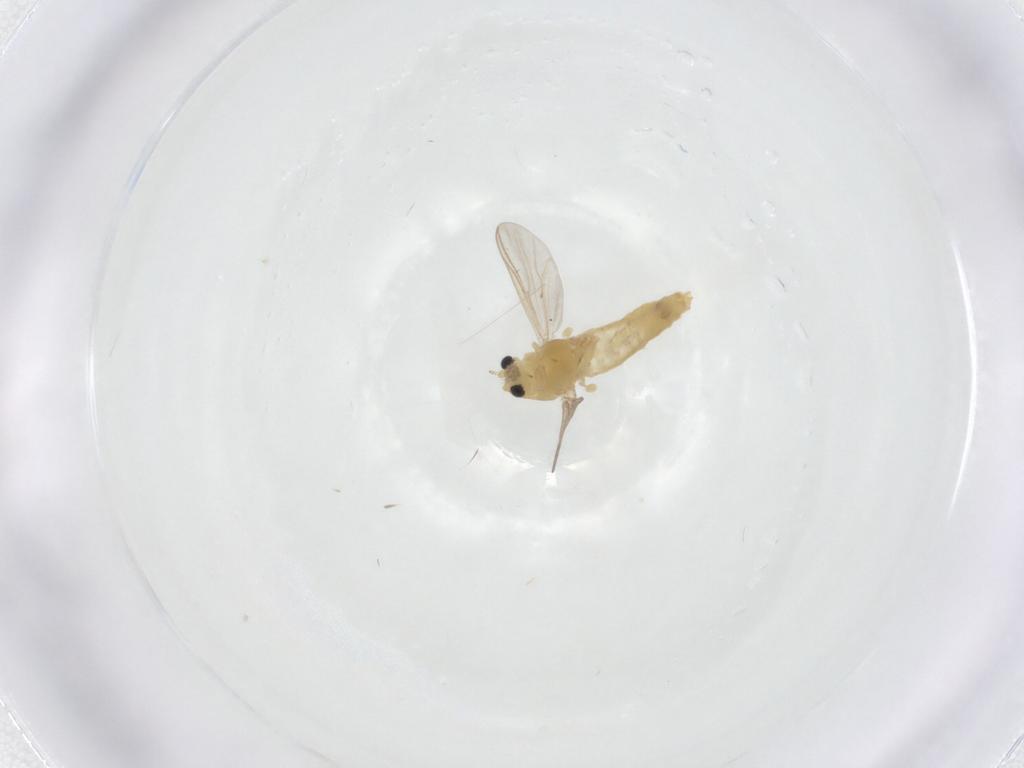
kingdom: Animalia
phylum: Arthropoda
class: Insecta
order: Diptera
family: Chironomidae
